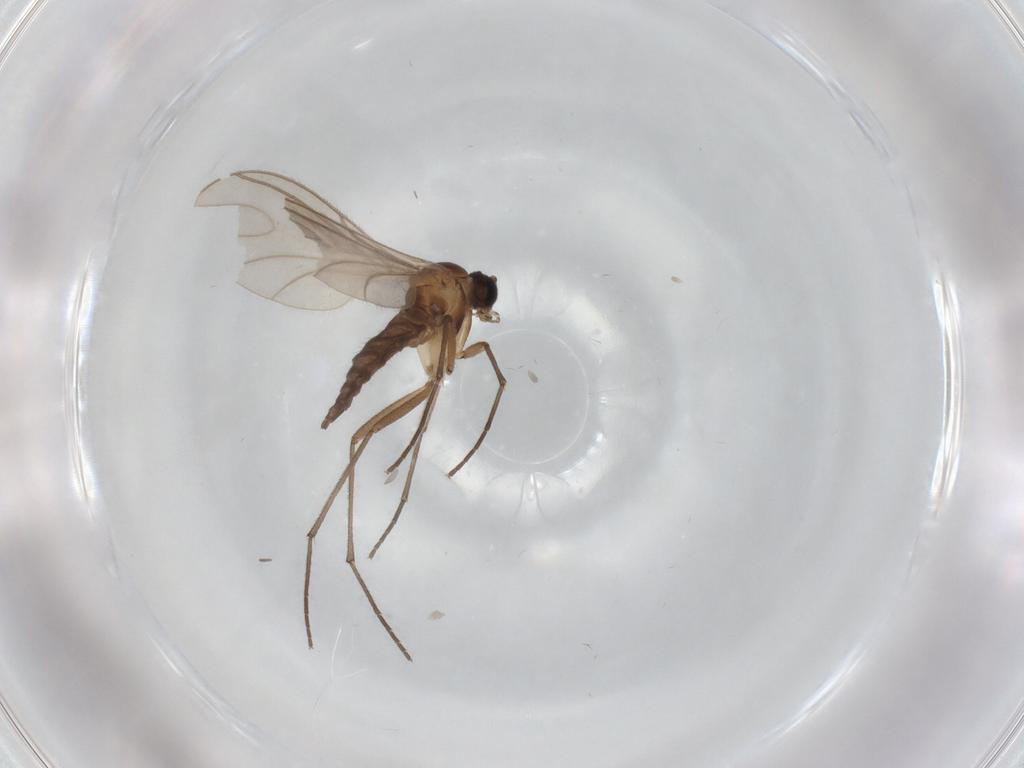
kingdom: Animalia
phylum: Arthropoda
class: Insecta
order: Diptera
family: Sciaridae
